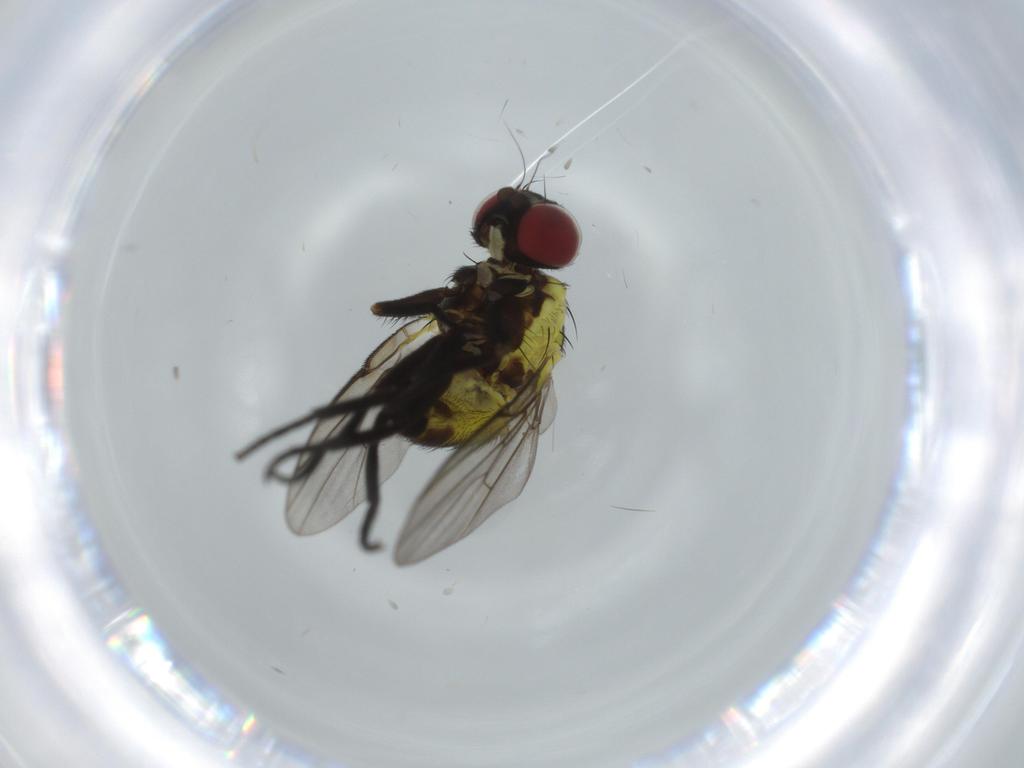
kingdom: Animalia
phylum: Arthropoda
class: Insecta
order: Diptera
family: Agromyzidae
